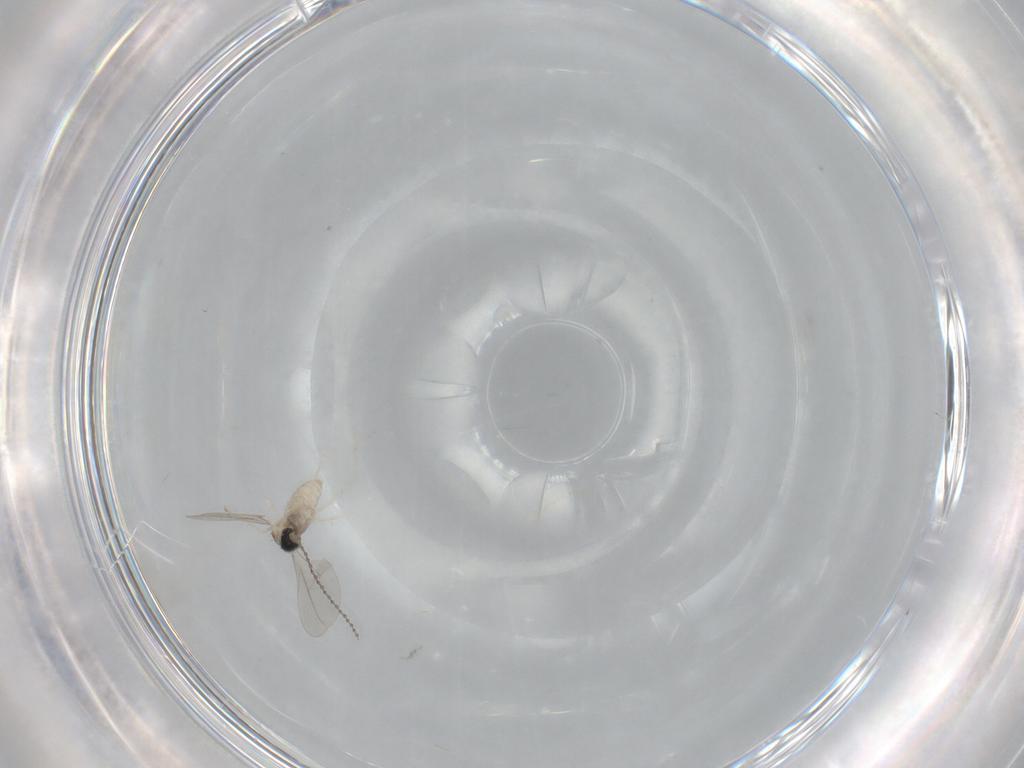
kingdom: Animalia
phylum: Arthropoda
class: Insecta
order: Diptera
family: Cecidomyiidae
